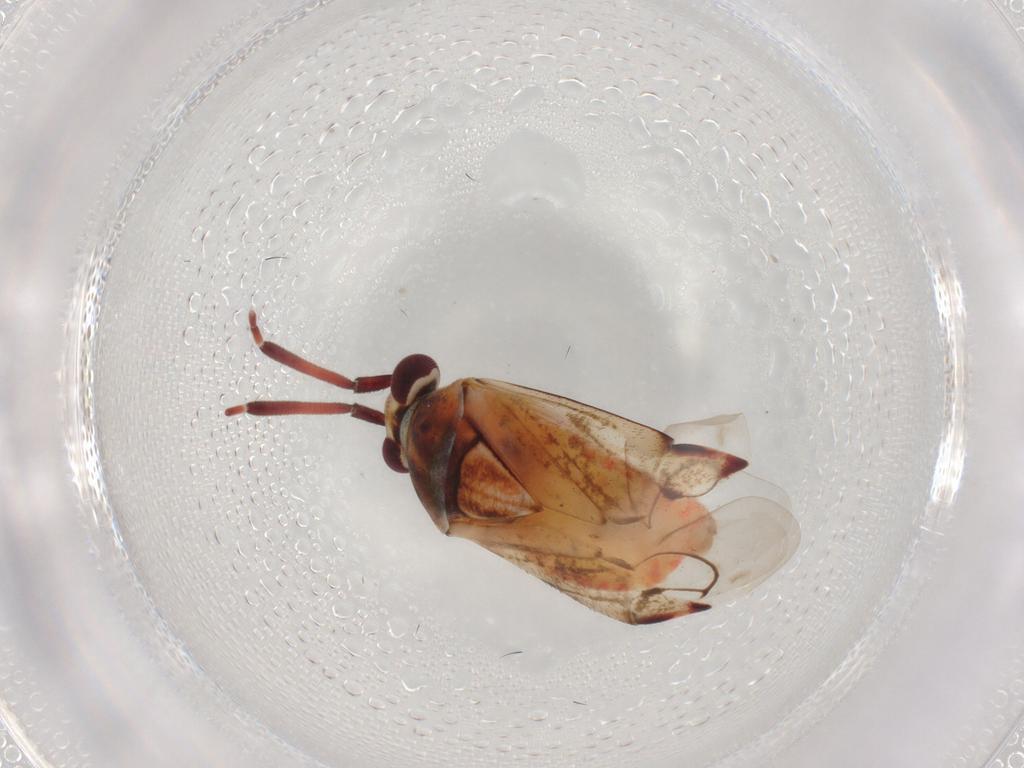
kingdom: Animalia
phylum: Arthropoda
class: Insecta
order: Hemiptera
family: Miridae
